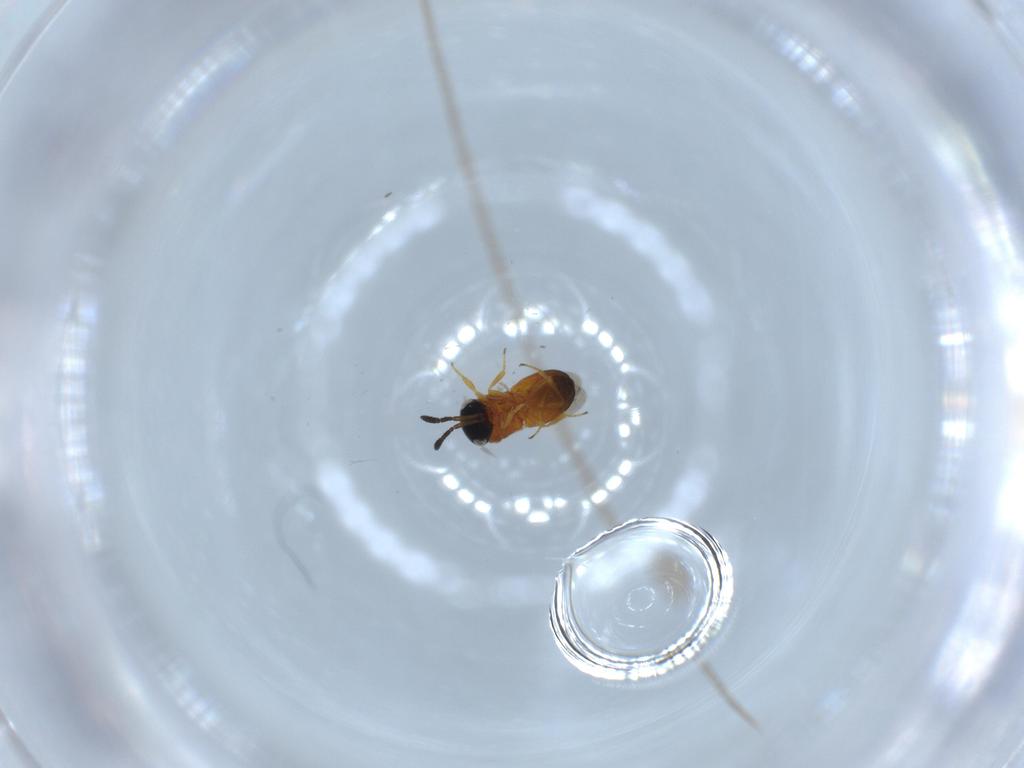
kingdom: Animalia
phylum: Arthropoda
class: Insecta
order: Hymenoptera
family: Scelionidae
